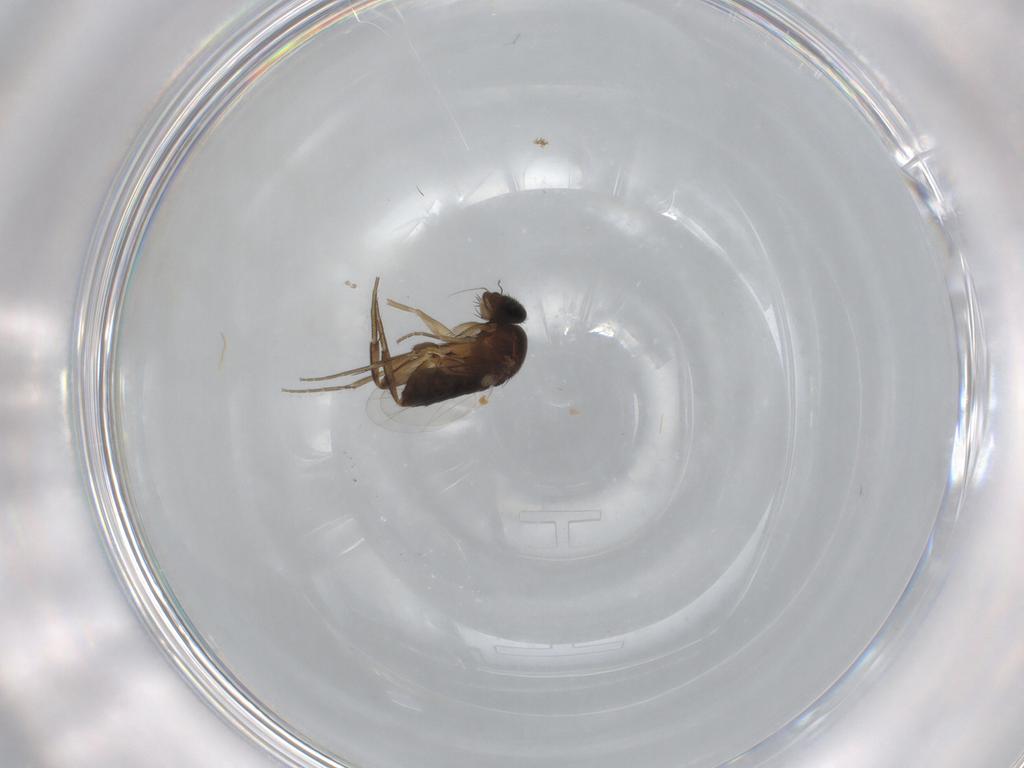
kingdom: Animalia
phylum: Arthropoda
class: Insecta
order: Diptera
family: Phoridae
